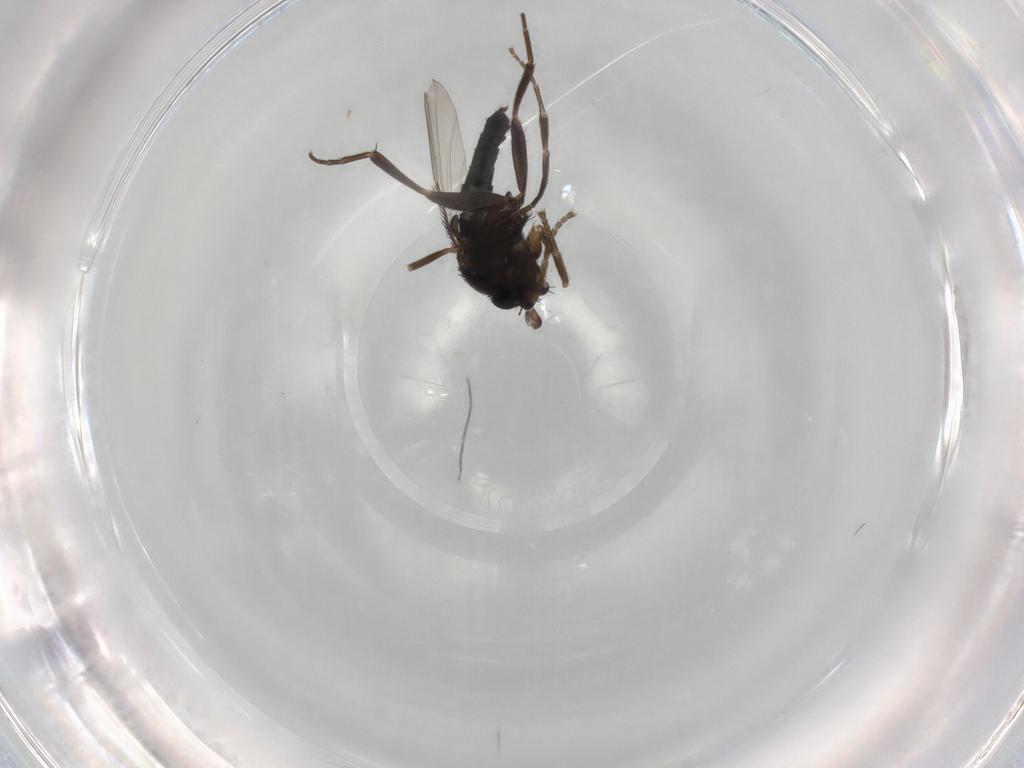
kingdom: Animalia
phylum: Arthropoda
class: Insecta
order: Diptera
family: Phoridae
